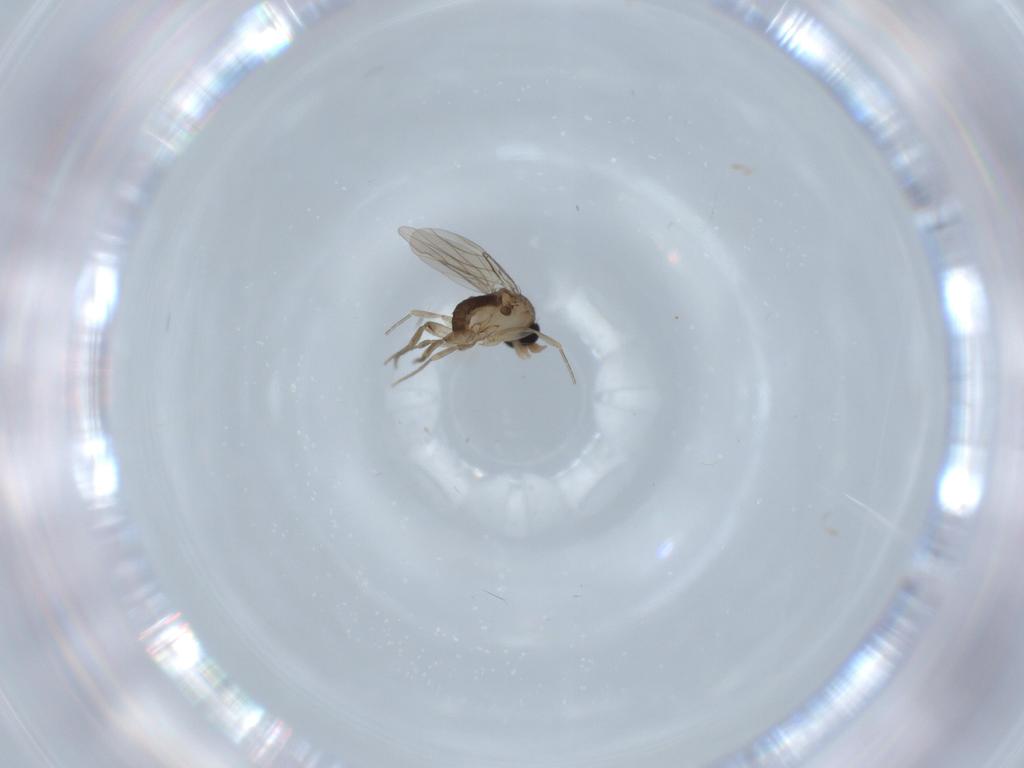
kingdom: Animalia
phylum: Arthropoda
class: Insecta
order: Diptera
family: Phoridae
